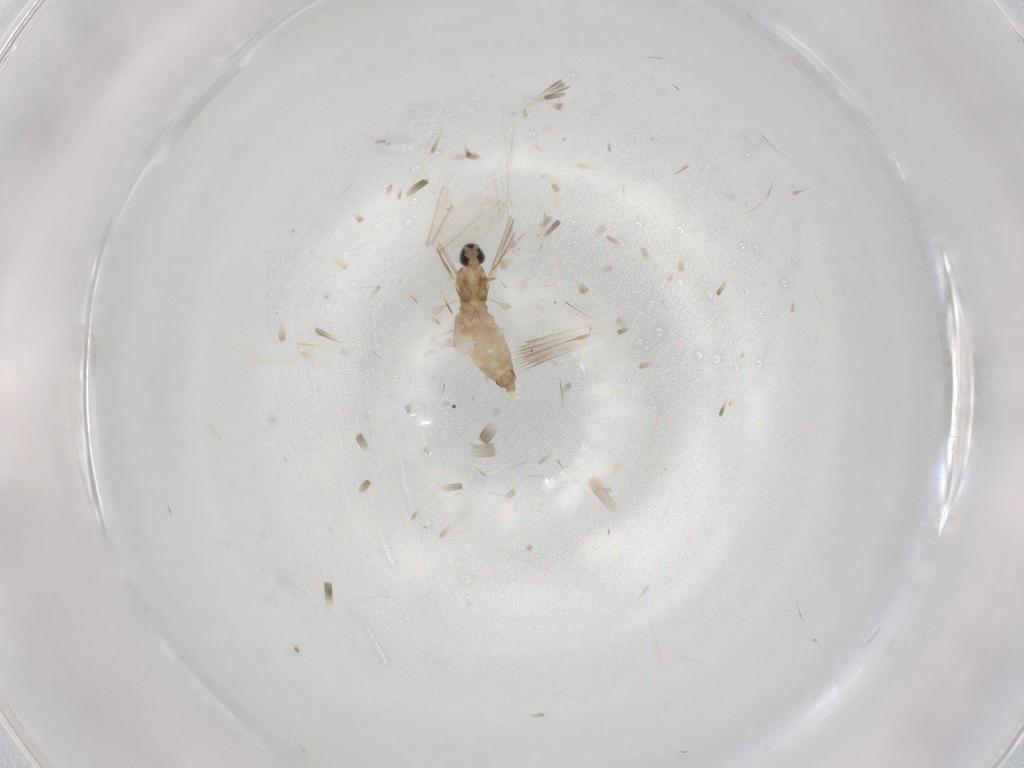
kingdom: Animalia
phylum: Arthropoda
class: Insecta
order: Diptera
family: Cecidomyiidae
